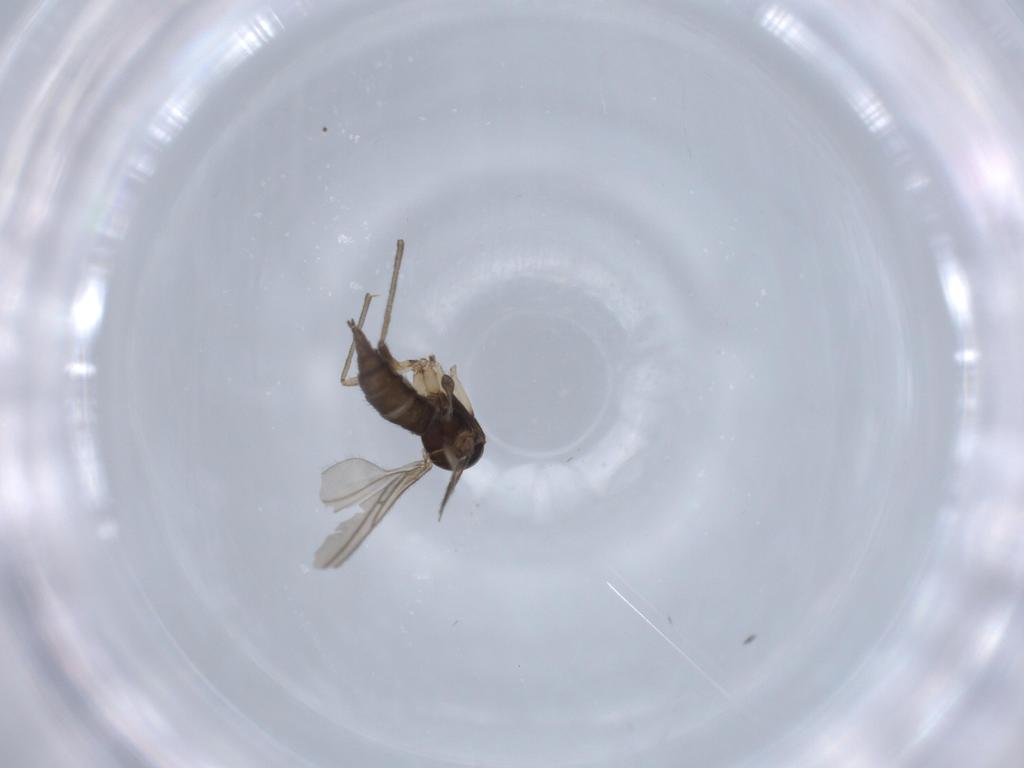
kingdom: Animalia
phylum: Arthropoda
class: Insecta
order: Diptera
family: Sciaridae
